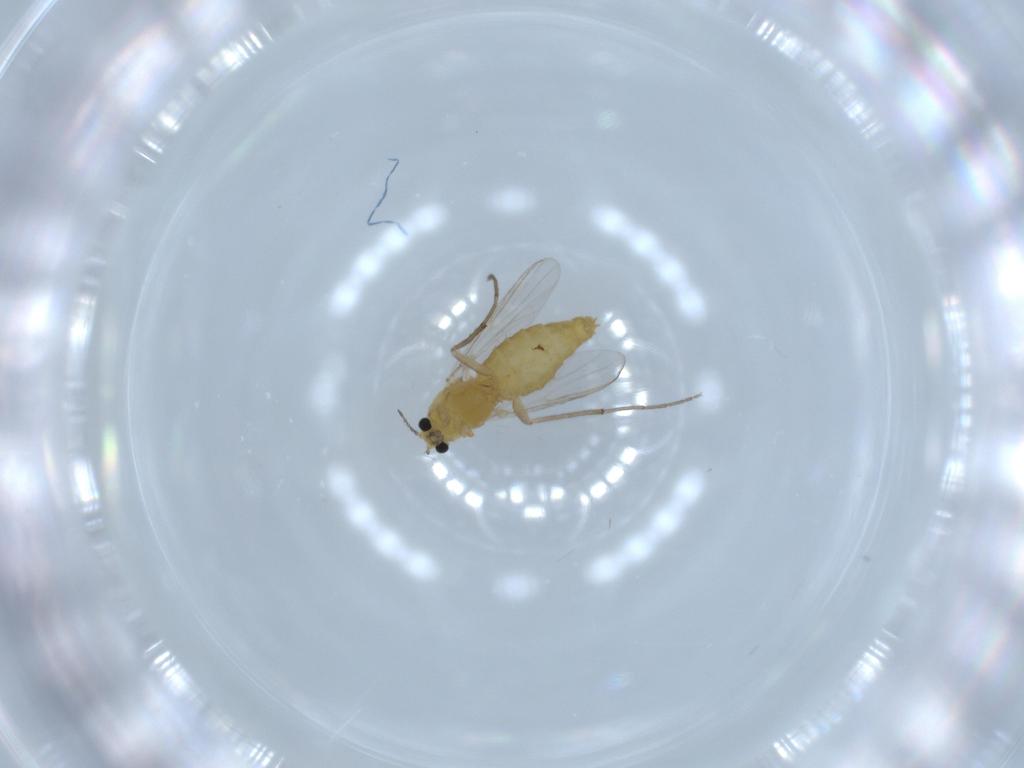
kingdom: Animalia
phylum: Arthropoda
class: Insecta
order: Diptera
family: Chironomidae
